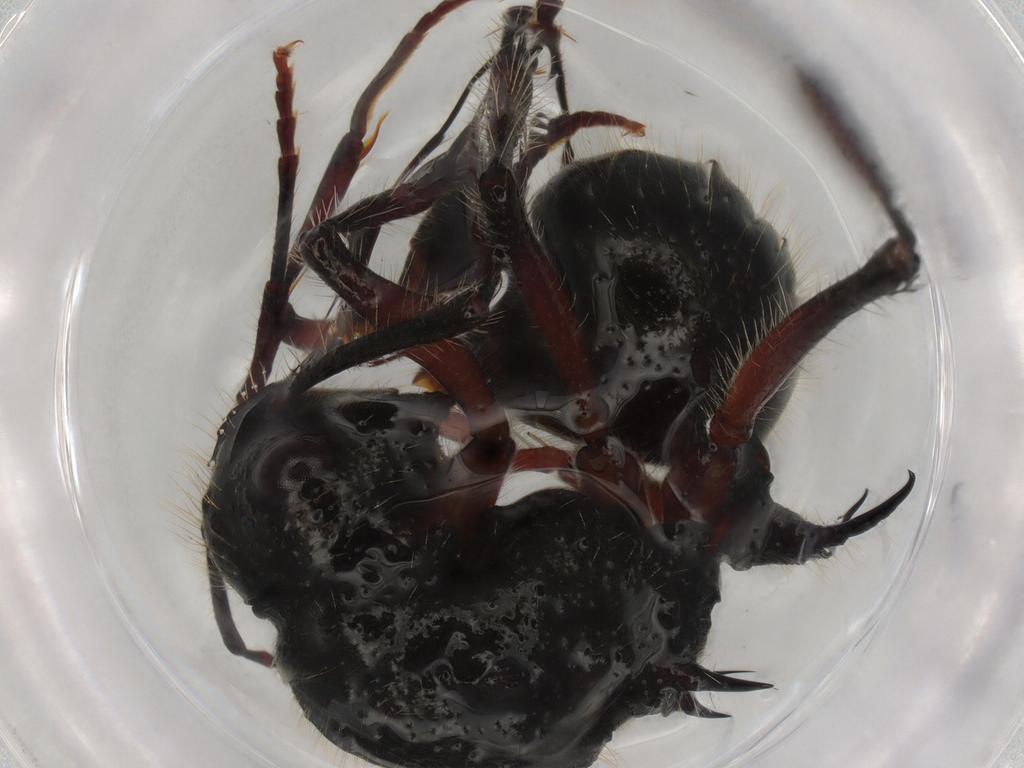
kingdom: Animalia
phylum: Arthropoda
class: Insecta
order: Hymenoptera
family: Formicidae
